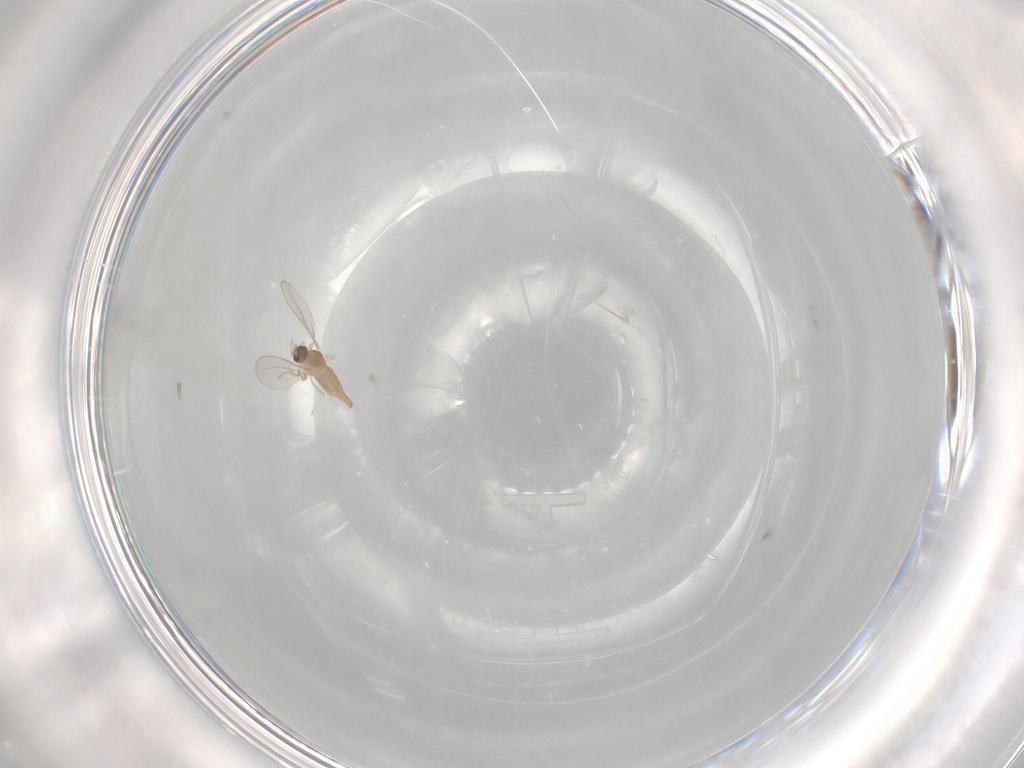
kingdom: Animalia
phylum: Arthropoda
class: Insecta
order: Diptera
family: Cecidomyiidae
